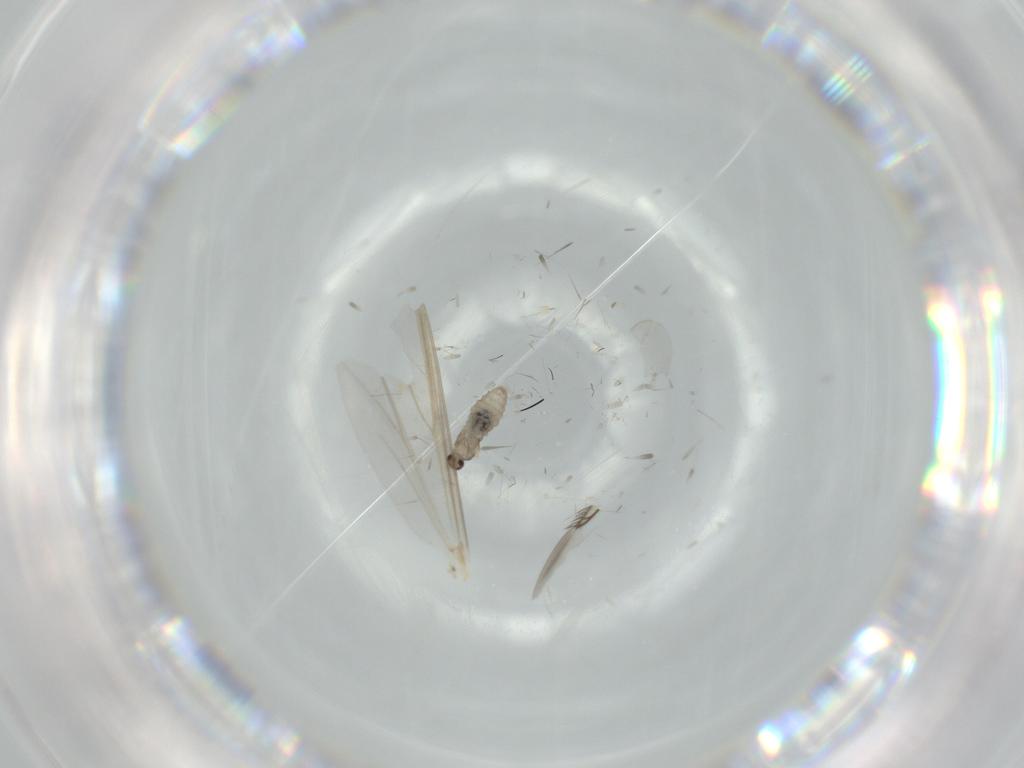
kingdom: Animalia
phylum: Arthropoda
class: Insecta
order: Diptera
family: Cecidomyiidae
